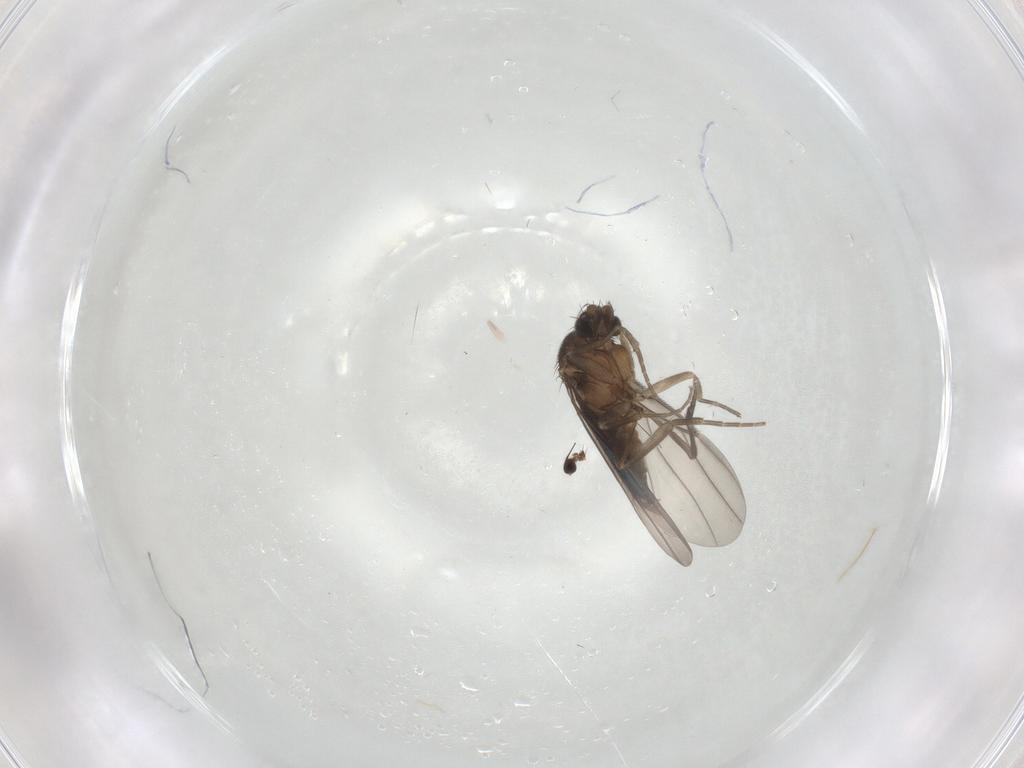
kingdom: Animalia
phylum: Arthropoda
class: Insecta
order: Diptera
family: Phoridae
